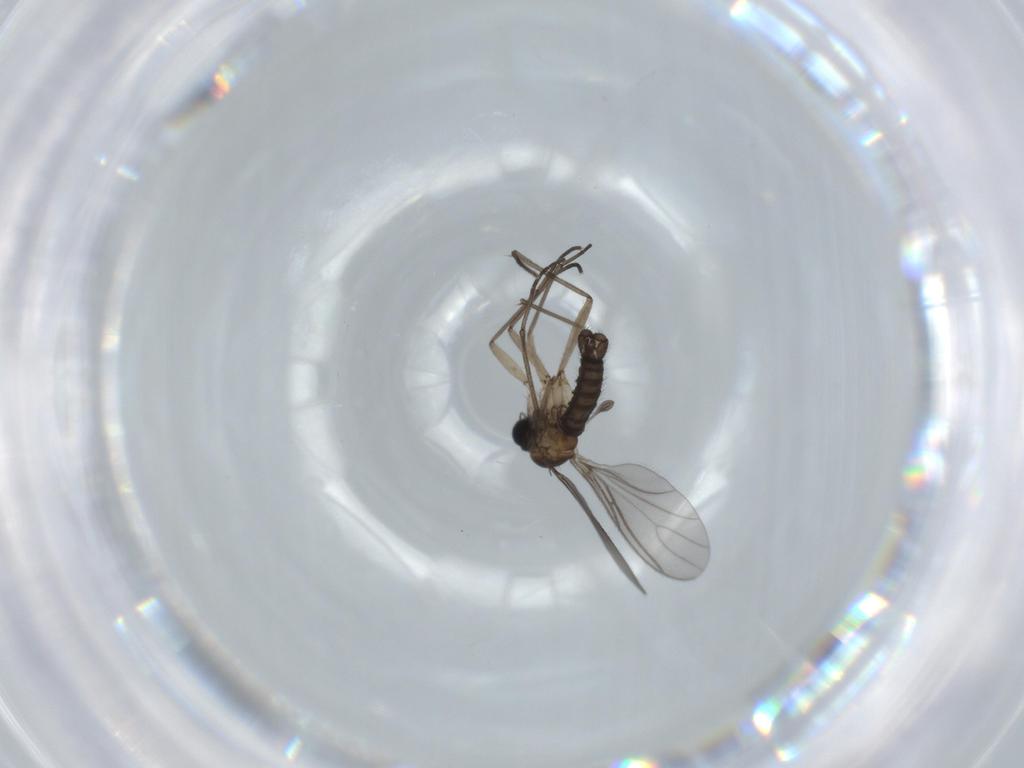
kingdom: Animalia
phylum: Arthropoda
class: Insecta
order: Diptera
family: Sciaridae
